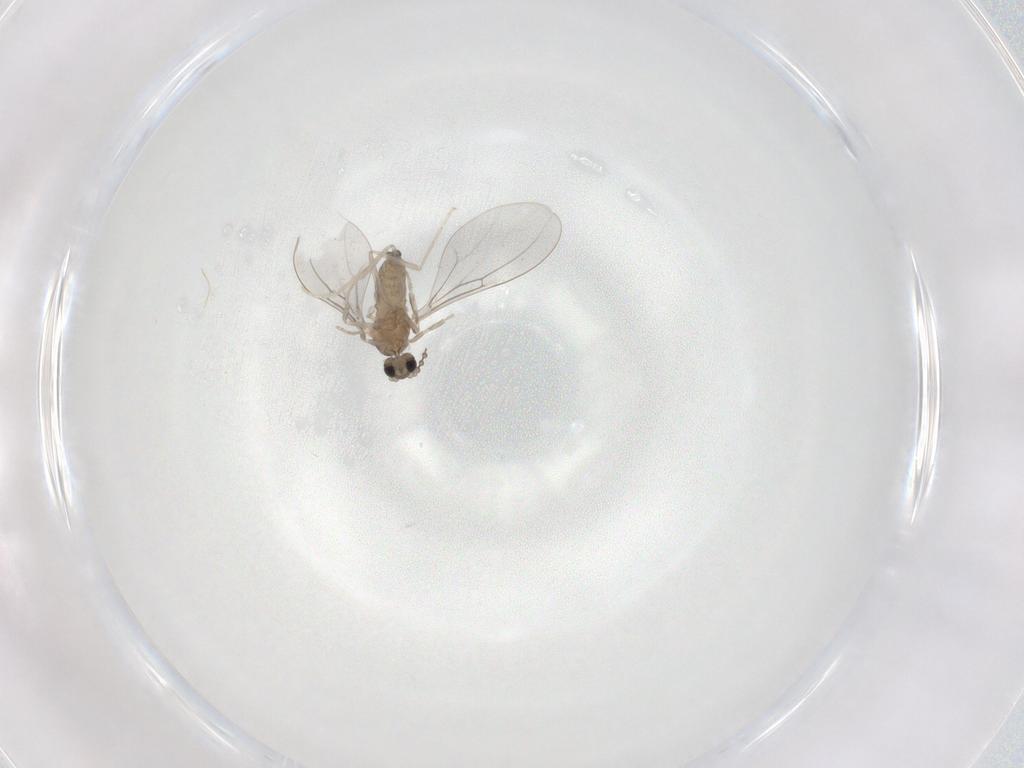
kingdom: Animalia
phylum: Arthropoda
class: Insecta
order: Diptera
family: Cecidomyiidae
